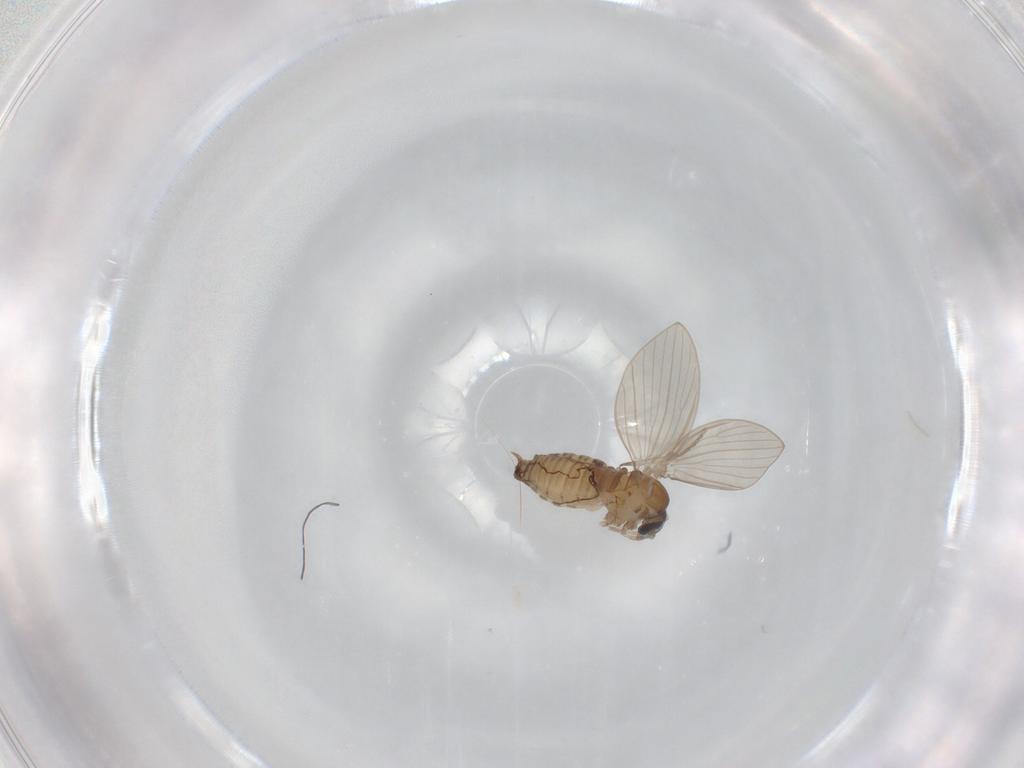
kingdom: Animalia
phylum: Arthropoda
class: Insecta
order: Diptera
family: Psychodidae
